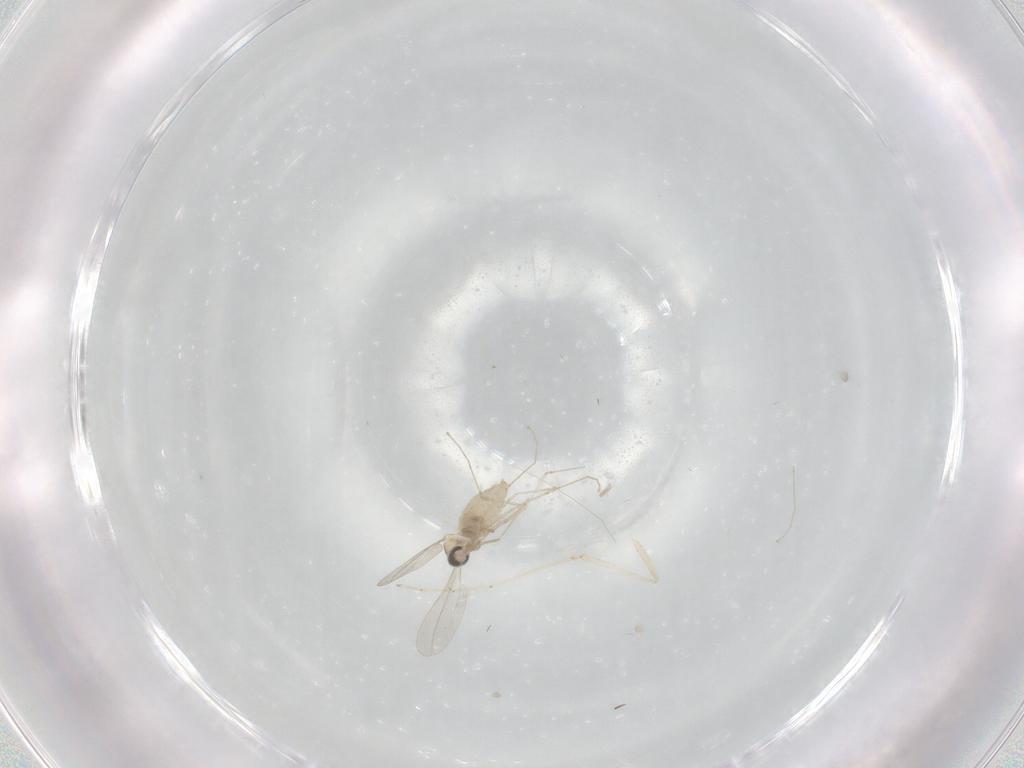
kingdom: Animalia
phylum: Arthropoda
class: Insecta
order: Diptera
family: Cecidomyiidae
